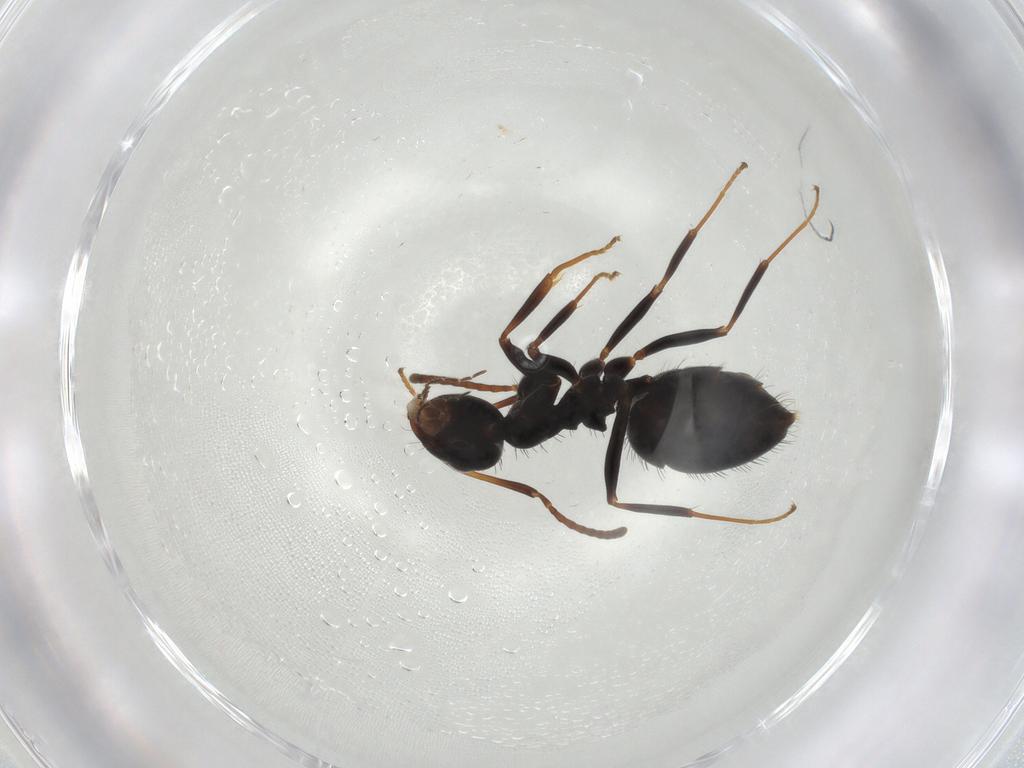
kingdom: Animalia
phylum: Arthropoda
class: Insecta
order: Hymenoptera
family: Formicidae
